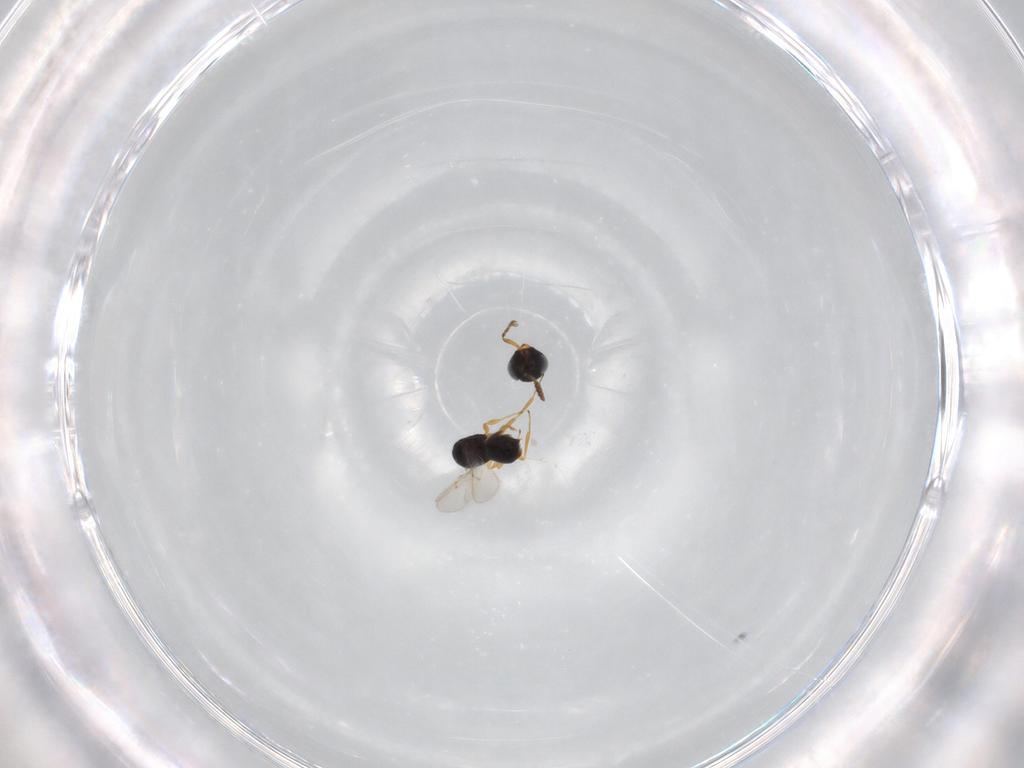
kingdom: Animalia
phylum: Arthropoda
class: Insecta
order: Hymenoptera
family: Scelionidae
